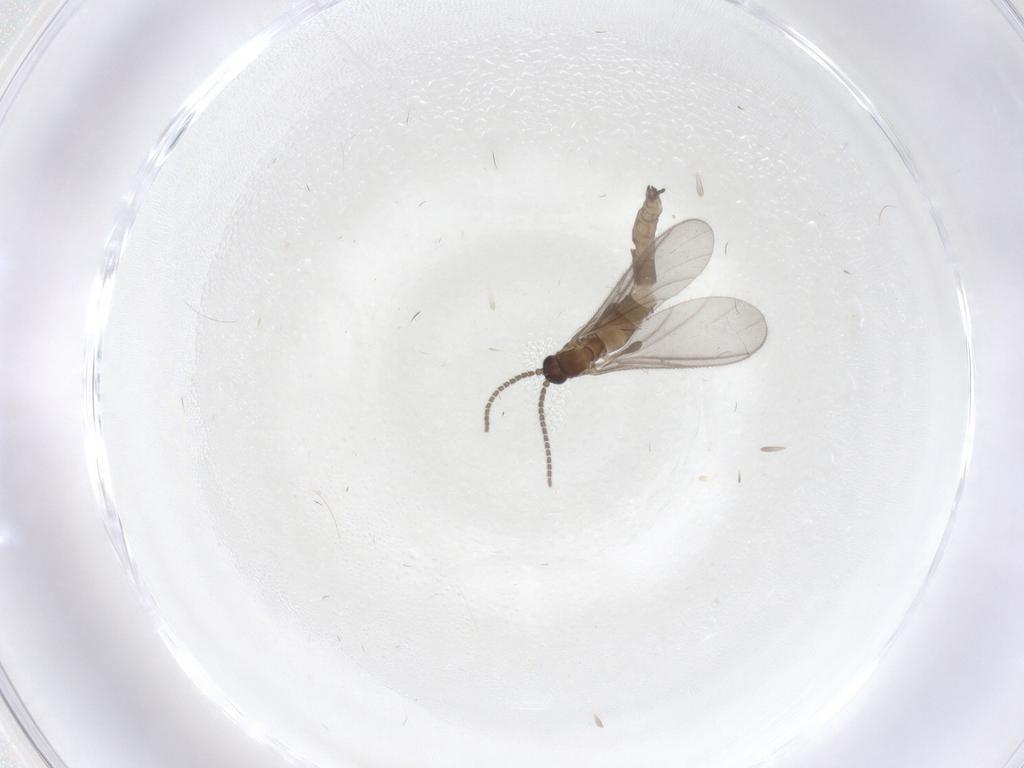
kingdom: Animalia
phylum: Arthropoda
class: Insecta
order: Diptera
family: Sciaridae
